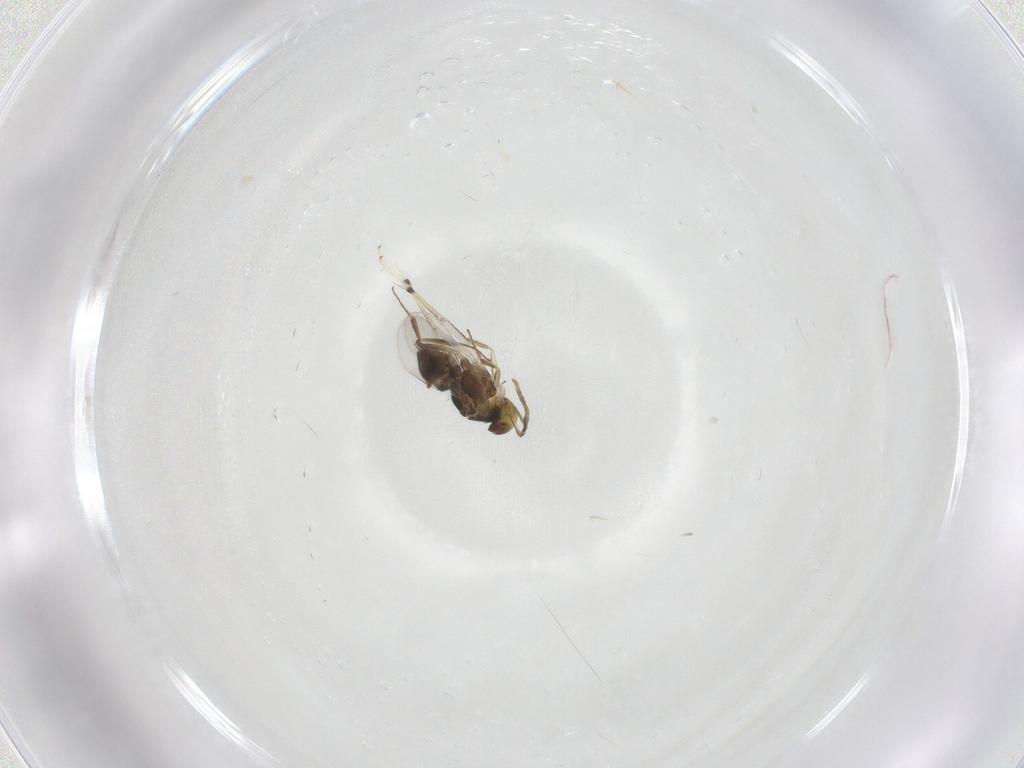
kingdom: Animalia
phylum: Arthropoda
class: Insecta
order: Hymenoptera
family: Encyrtidae
